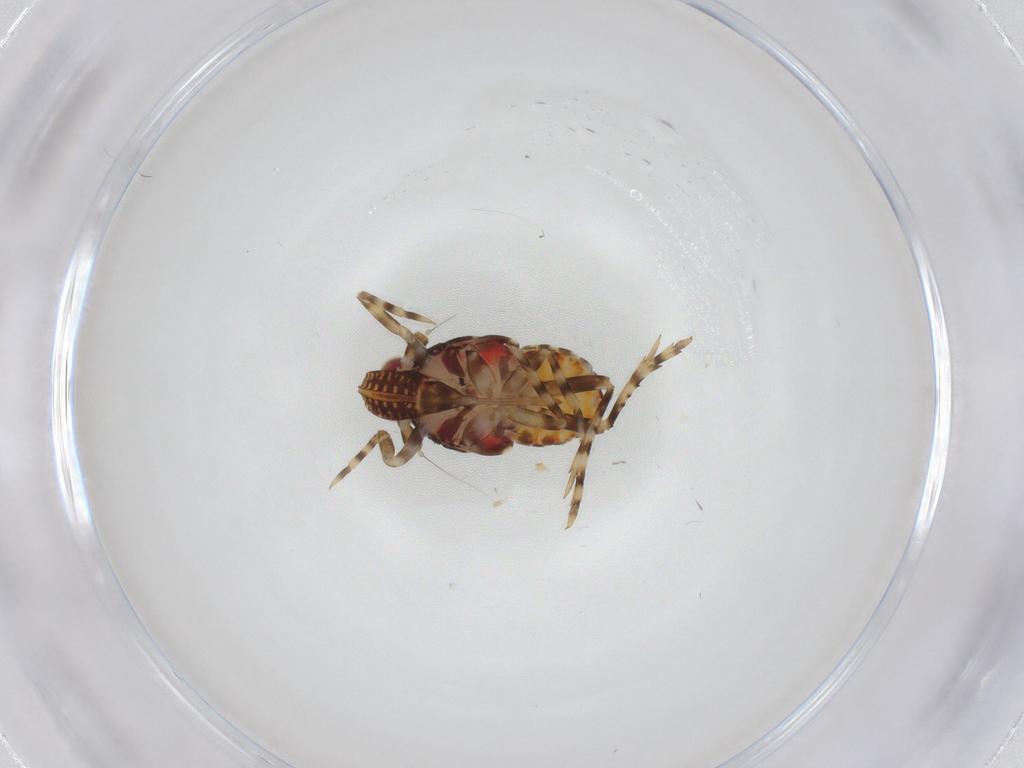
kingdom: Animalia
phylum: Arthropoda
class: Insecta
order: Hemiptera
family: Delphacidae
